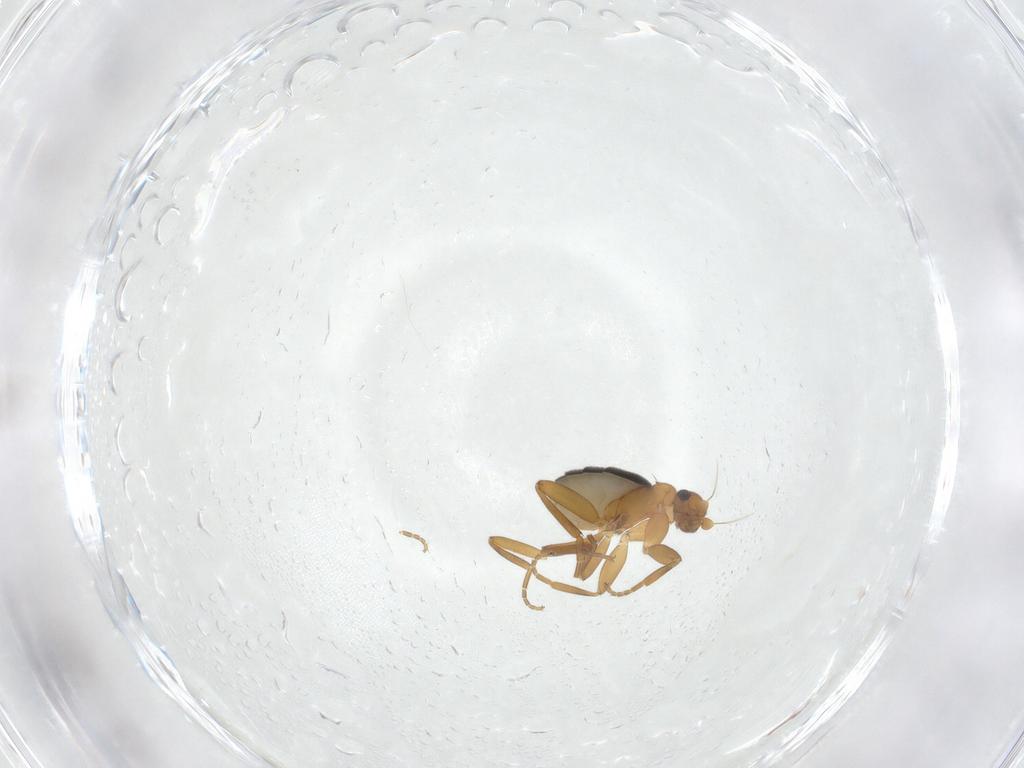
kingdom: Animalia
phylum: Arthropoda
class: Insecta
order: Diptera
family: Phoridae
